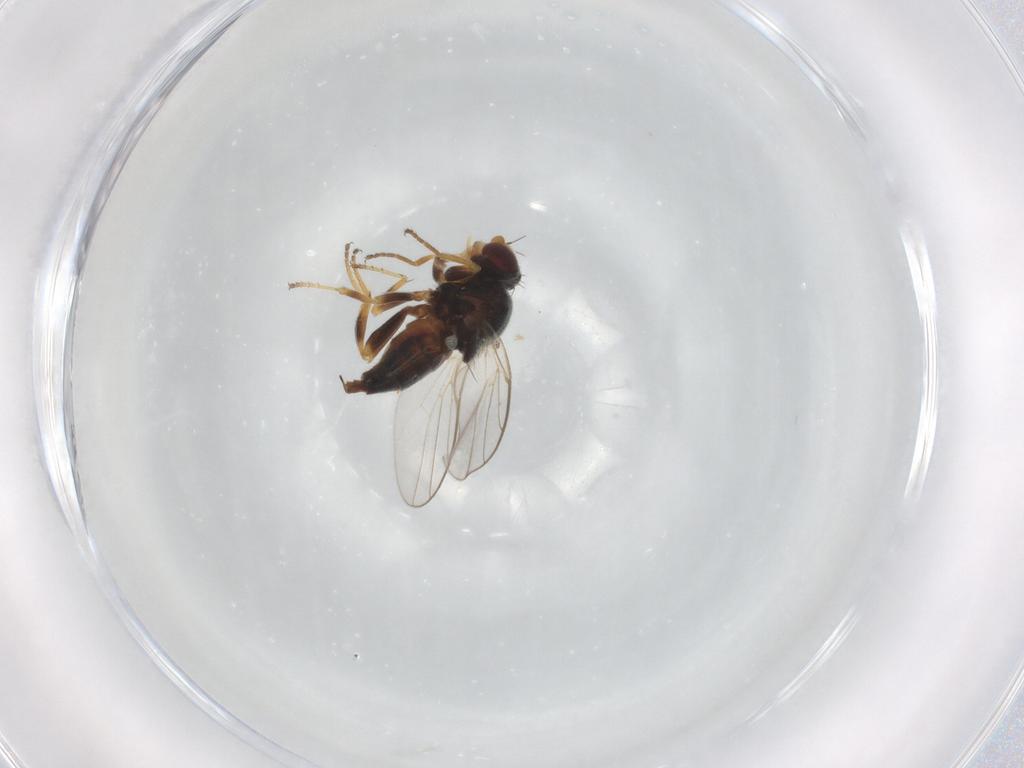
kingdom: Animalia
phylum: Arthropoda
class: Insecta
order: Diptera
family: Chloropidae
